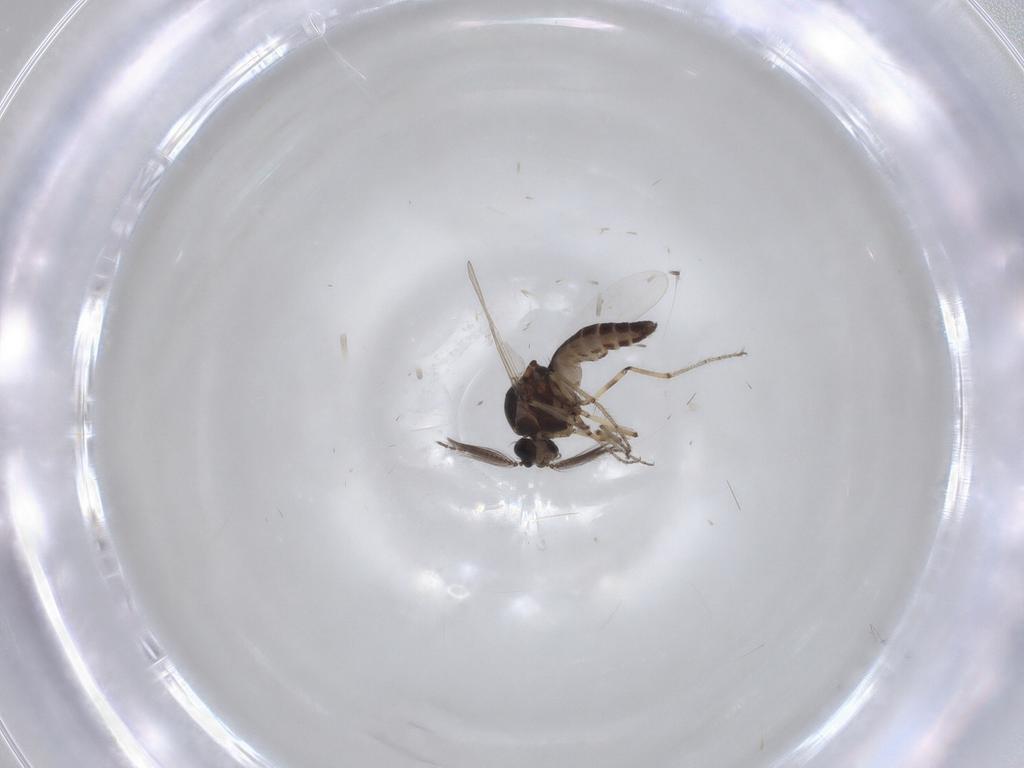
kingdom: Animalia
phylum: Arthropoda
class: Insecta
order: Diptera
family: Ceratopogonidae
